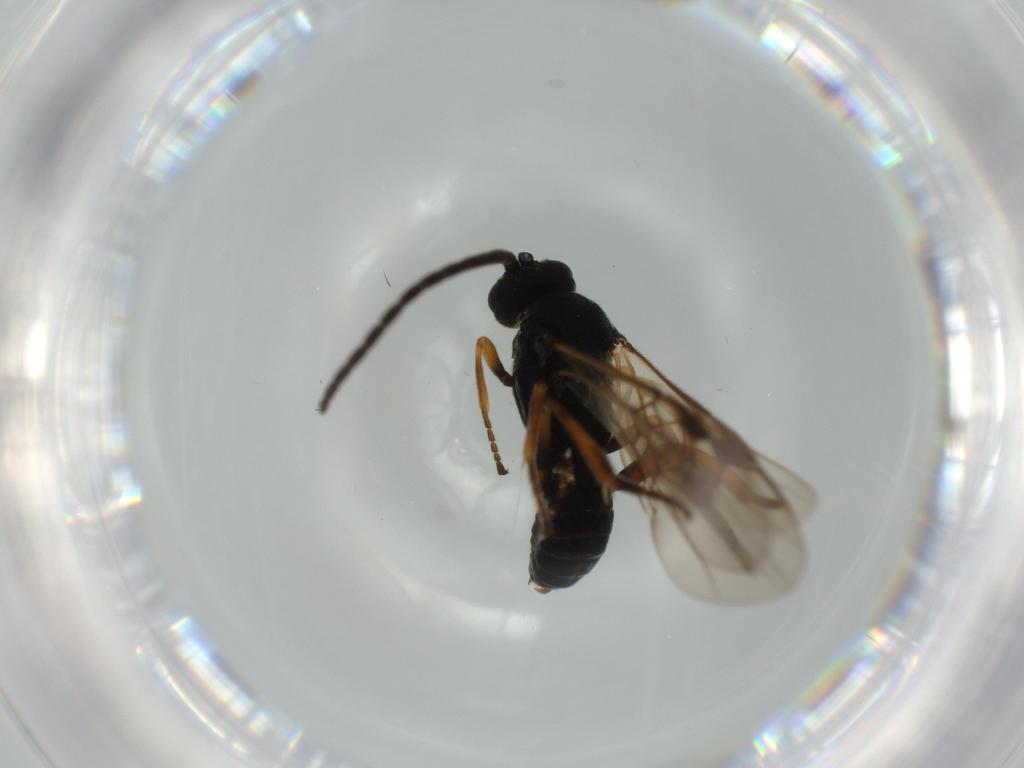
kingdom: Animalia
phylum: Arthropoda
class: Insecta
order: Hymenoptera
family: Braconidae
